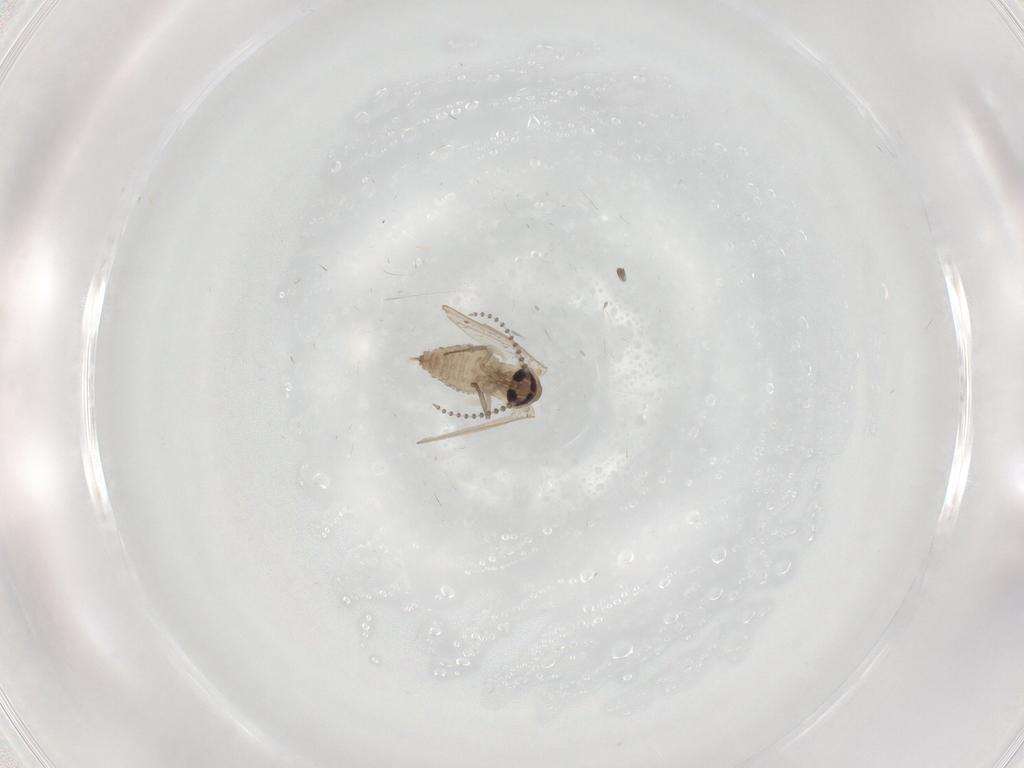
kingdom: Animalia
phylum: Arthropoda
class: Insecta
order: Diptera
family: Psychodidae
